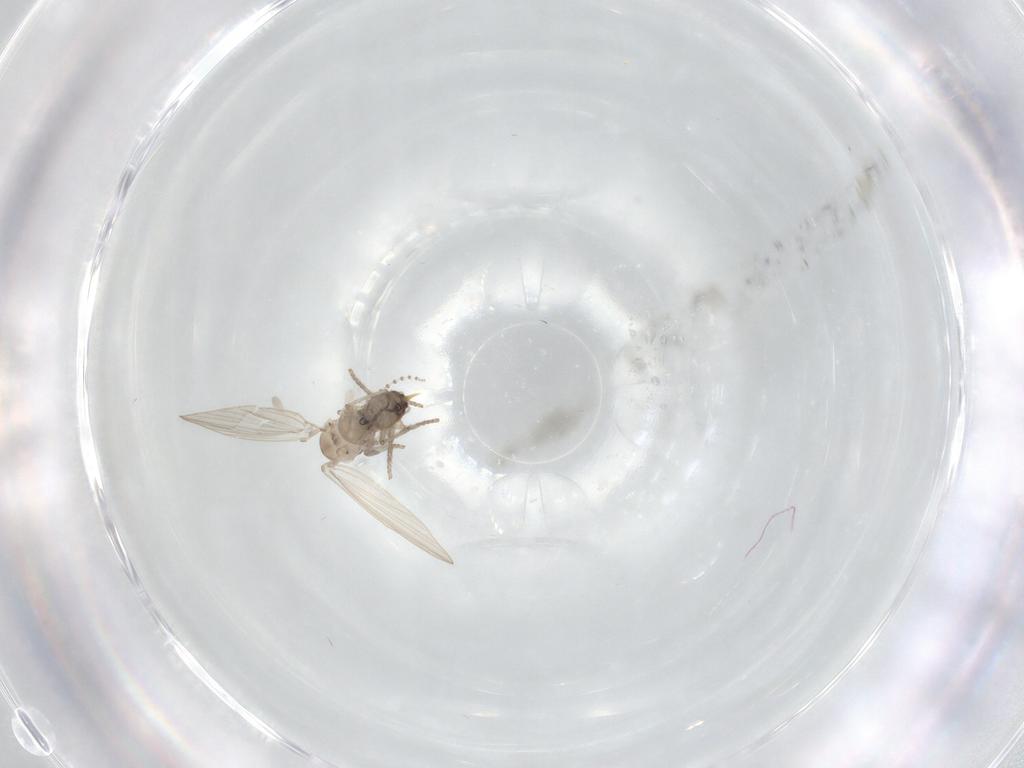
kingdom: Animalia
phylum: Arthropoda
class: Insecta
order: Diptera
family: Psychodidae
